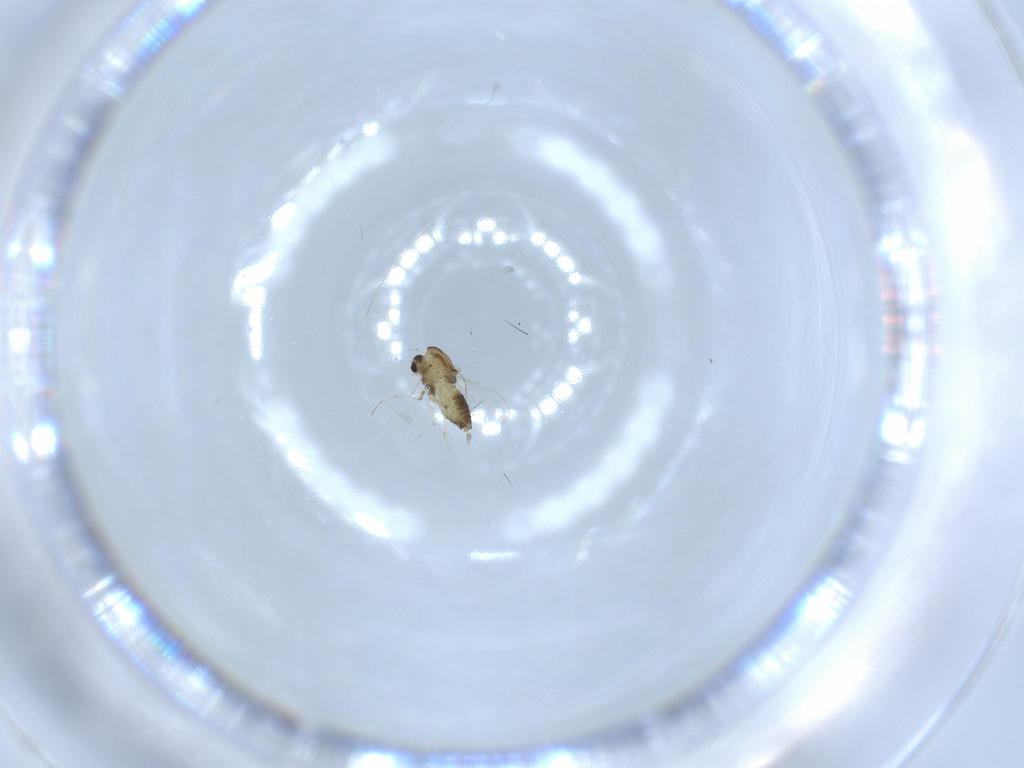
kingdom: Animalia
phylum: Arthropoda
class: Insecta
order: Diptera
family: Chironomidae
